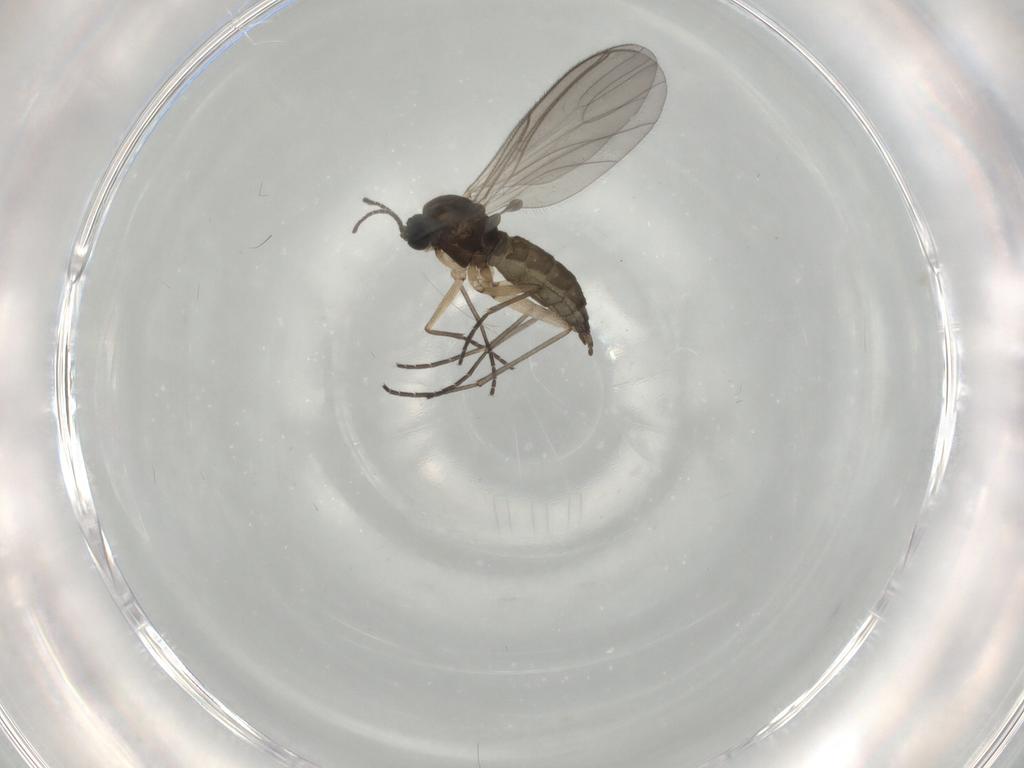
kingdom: Animalia
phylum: Arthropoda
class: Insecta
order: Diptera
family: Sciaridae
